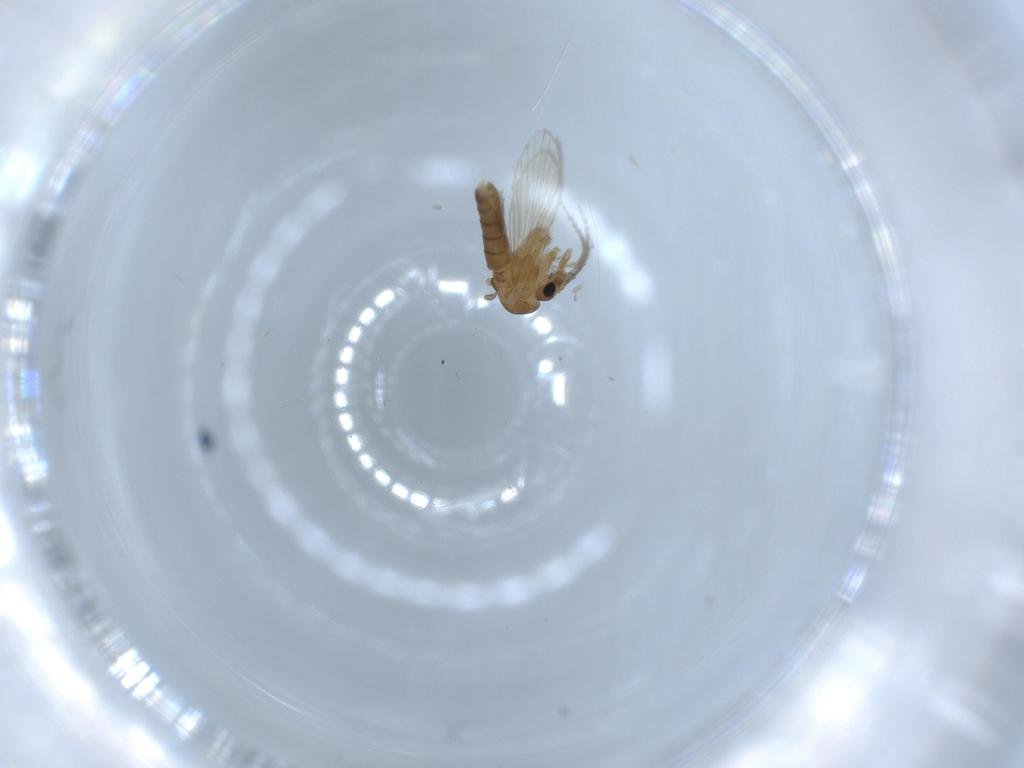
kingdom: Animalia
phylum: Arthropoda
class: Insecta
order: Diptera
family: Psychodidae
